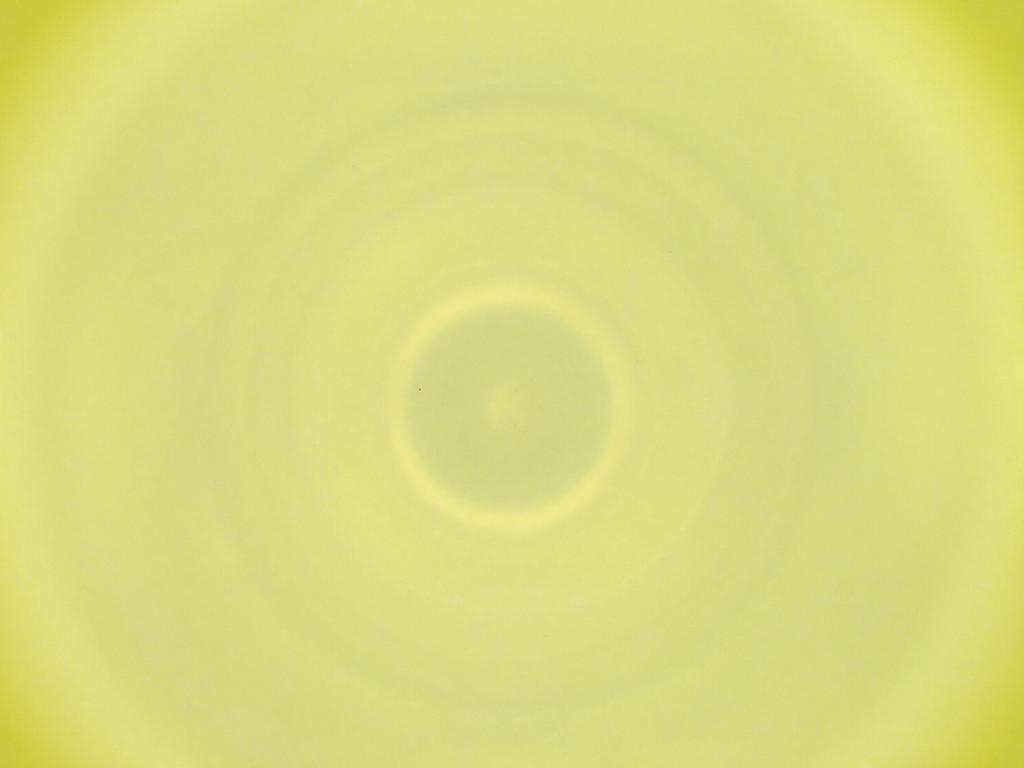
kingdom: Animalia
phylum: Arthropoda
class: Insecta
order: Diptera
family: Cecidomyiidae
